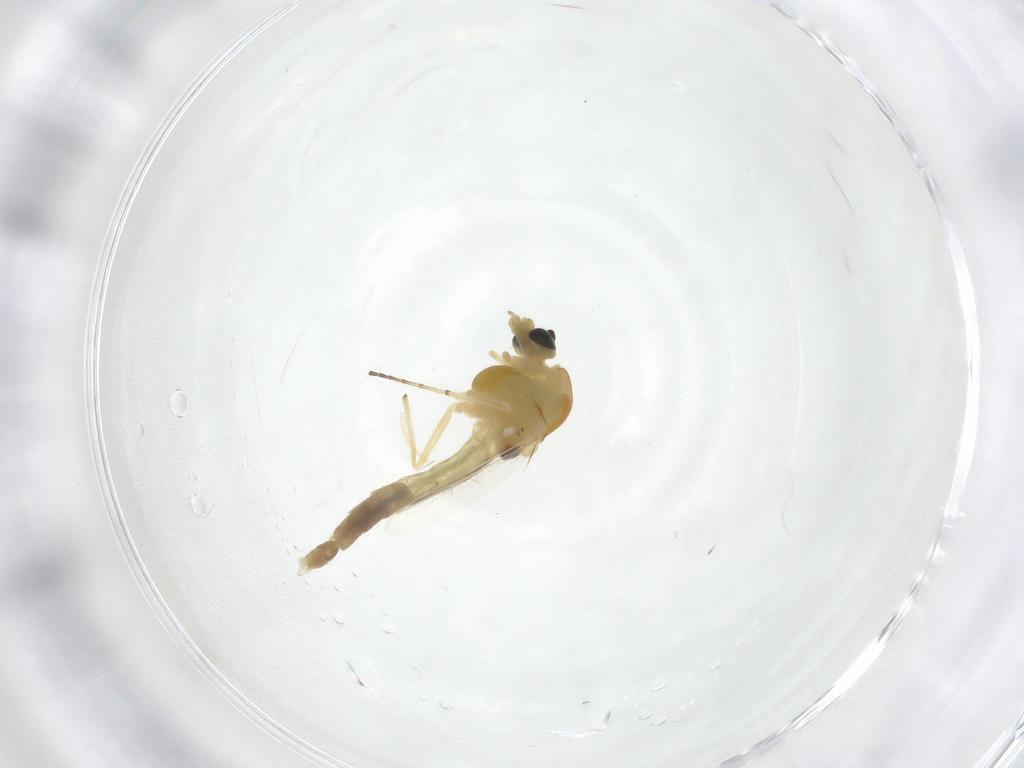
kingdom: Animalia
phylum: Arthropoda
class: Insecta
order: Diptera
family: Chironomidae
